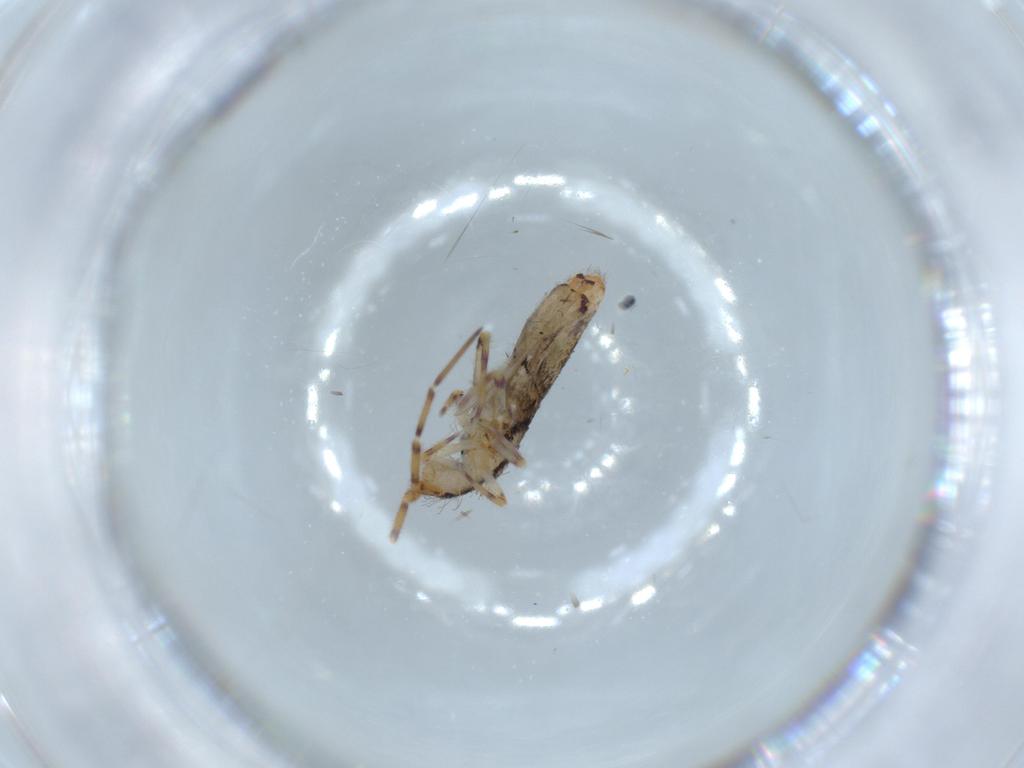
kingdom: Animalia
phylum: Arthropoda
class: Collembola
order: Entomobryomorpha
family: Entomobryidae
